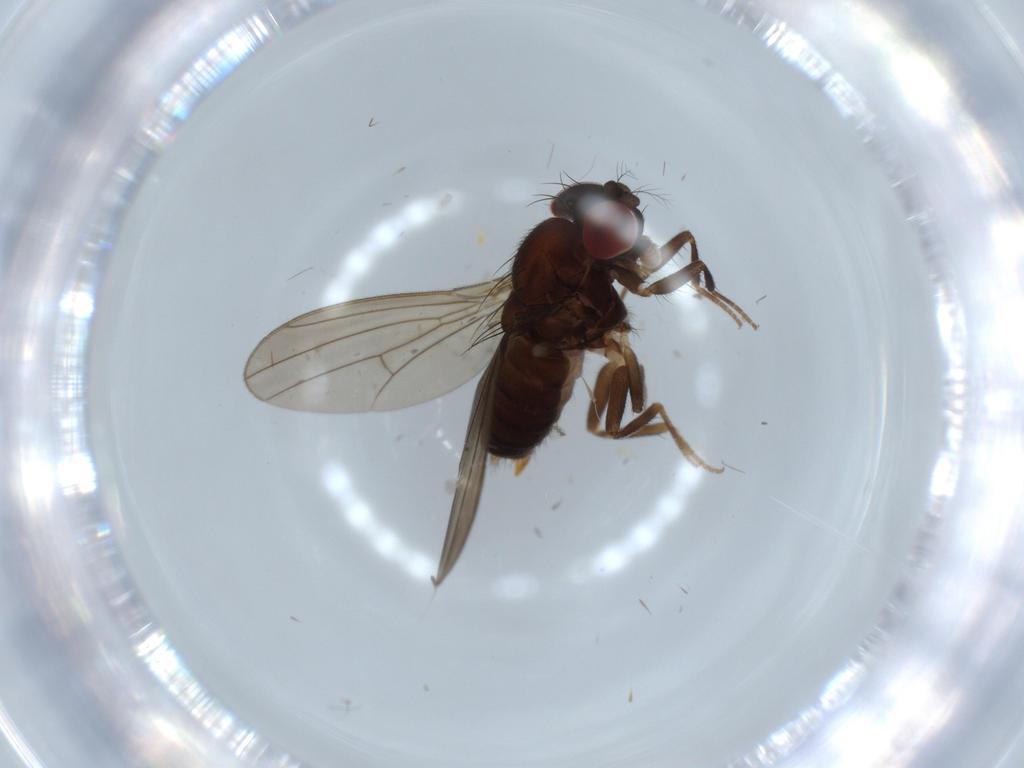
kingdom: Animalia
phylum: Arthropoda
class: Insecta
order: Diptera
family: Drosophilidae
